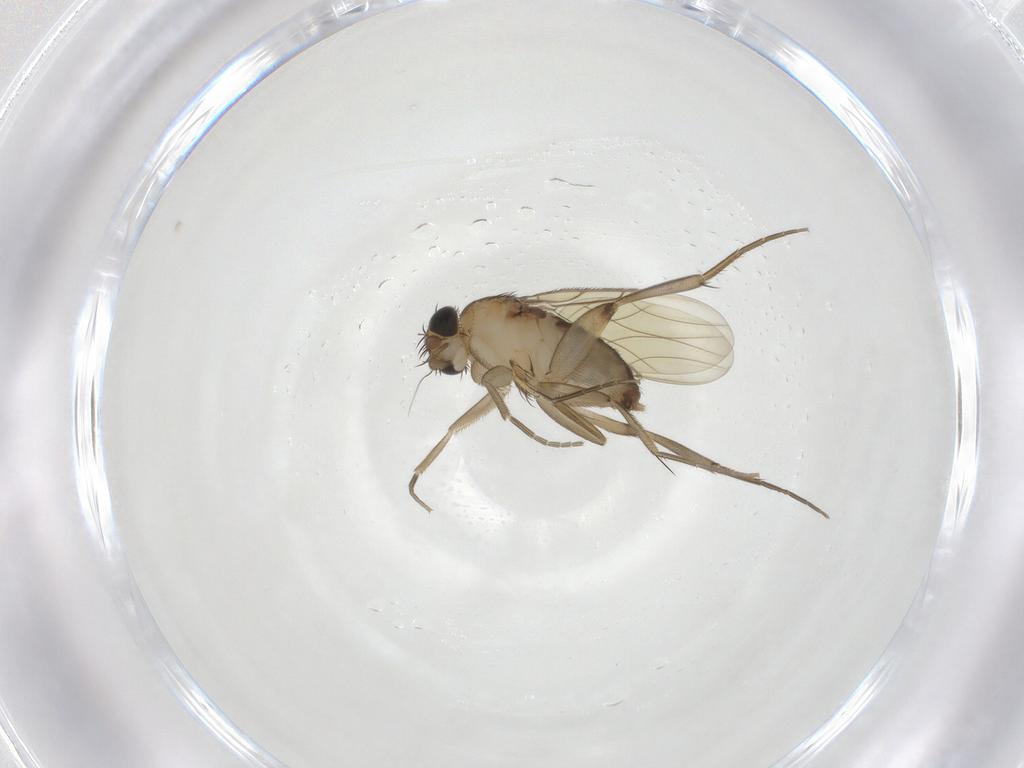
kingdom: Animalia
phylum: Arthropoda
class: Insecta
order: Diptera
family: Phoridae
